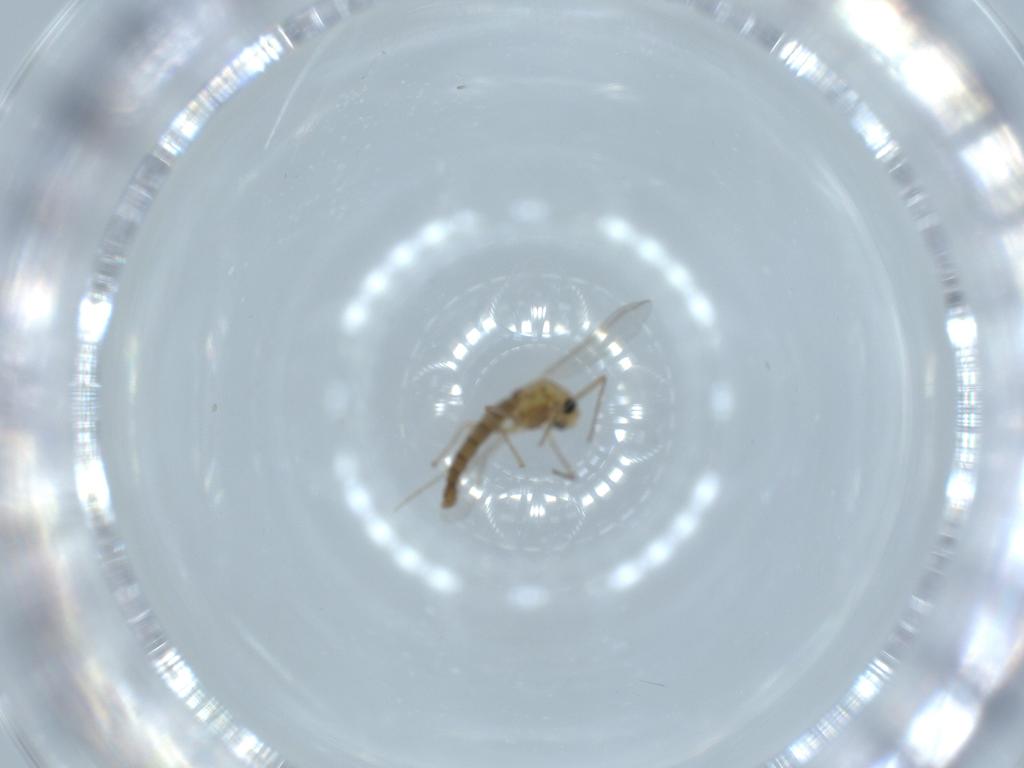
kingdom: Animalia
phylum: Arthropoda
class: Insecta
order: Diptera
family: Chironomidae
